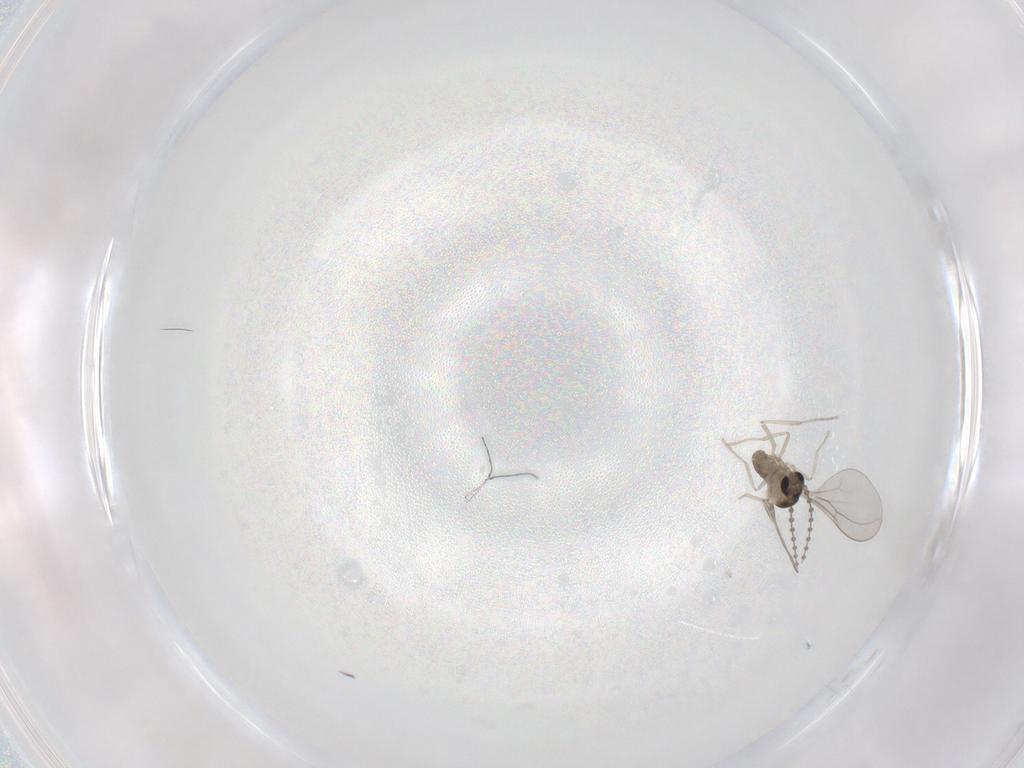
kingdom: Animalia
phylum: Arthropoda
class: Insecta
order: Diptera
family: Cecidomyiidae
